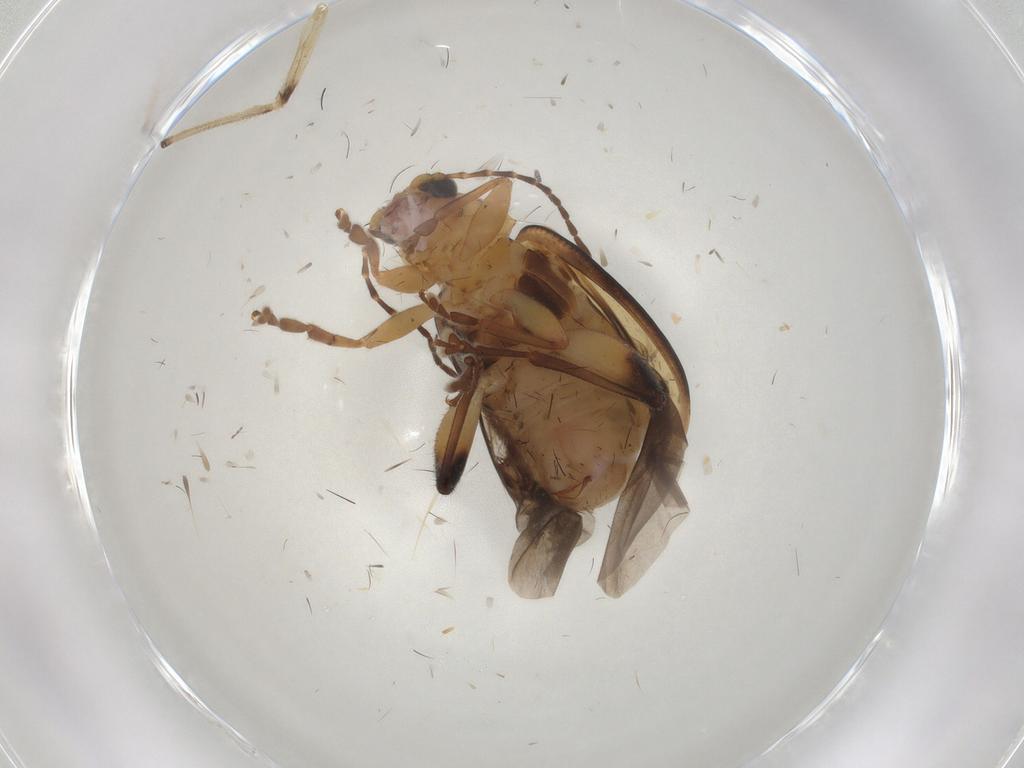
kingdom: Animalia
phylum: Arthropoda
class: Insecta
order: Coleoptera
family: Chrysomelidae
